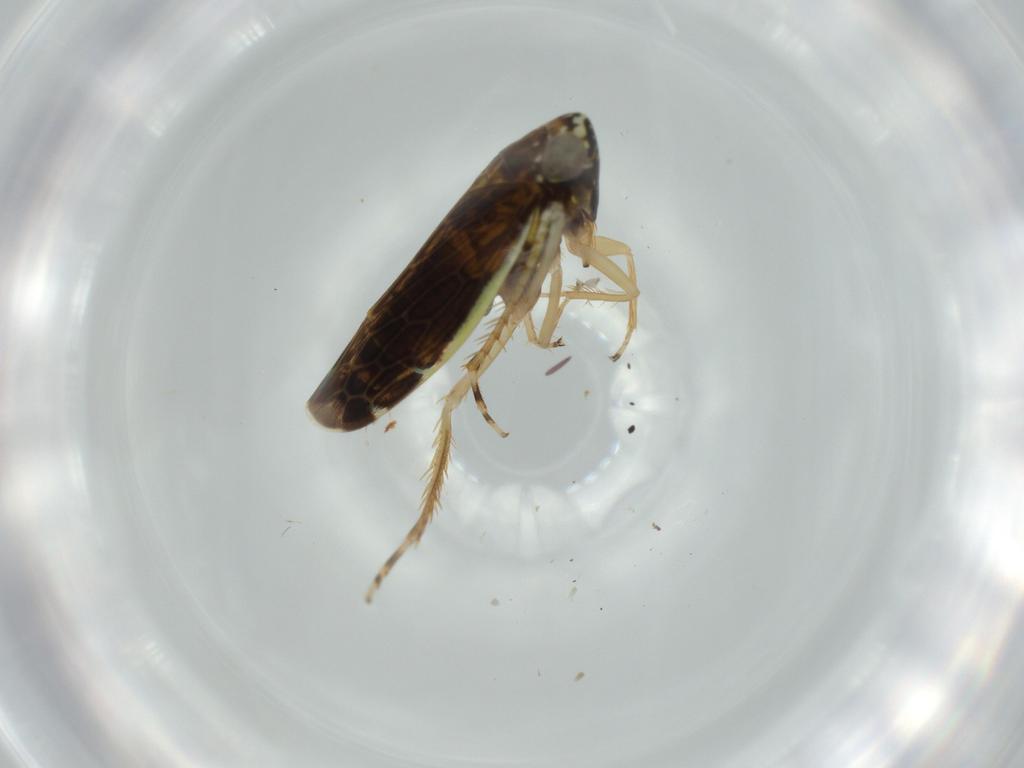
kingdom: Animalia
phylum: Arthropoda
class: Insecta
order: Hemiptera
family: Cicadellidae
